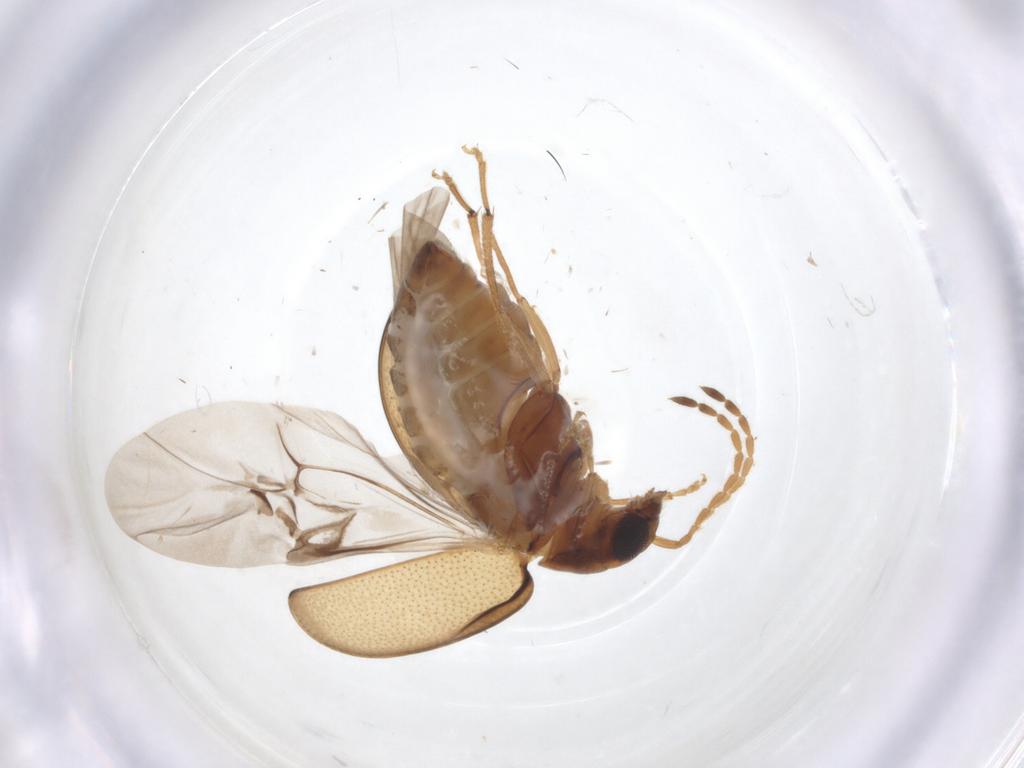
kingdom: Animalia
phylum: Arthropoda
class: Insecta
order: Coleoptera
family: Chrysomelidae
